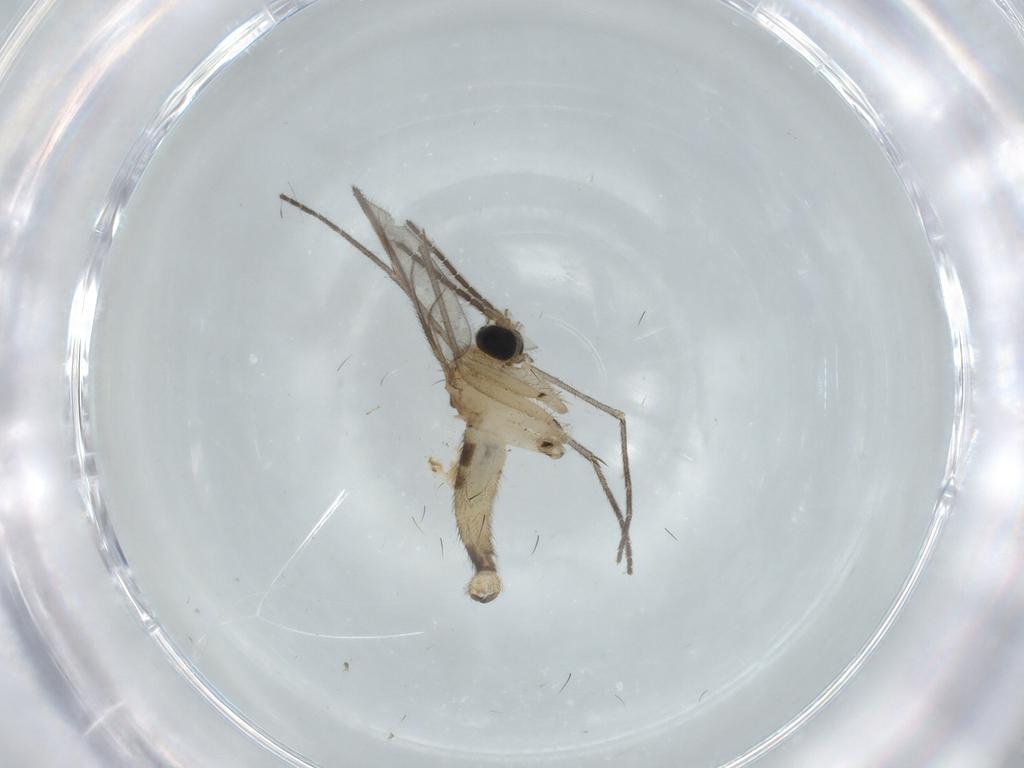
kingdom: Animalia
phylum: Arthropoda
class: Insecta
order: Diptera
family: Sciaridae
